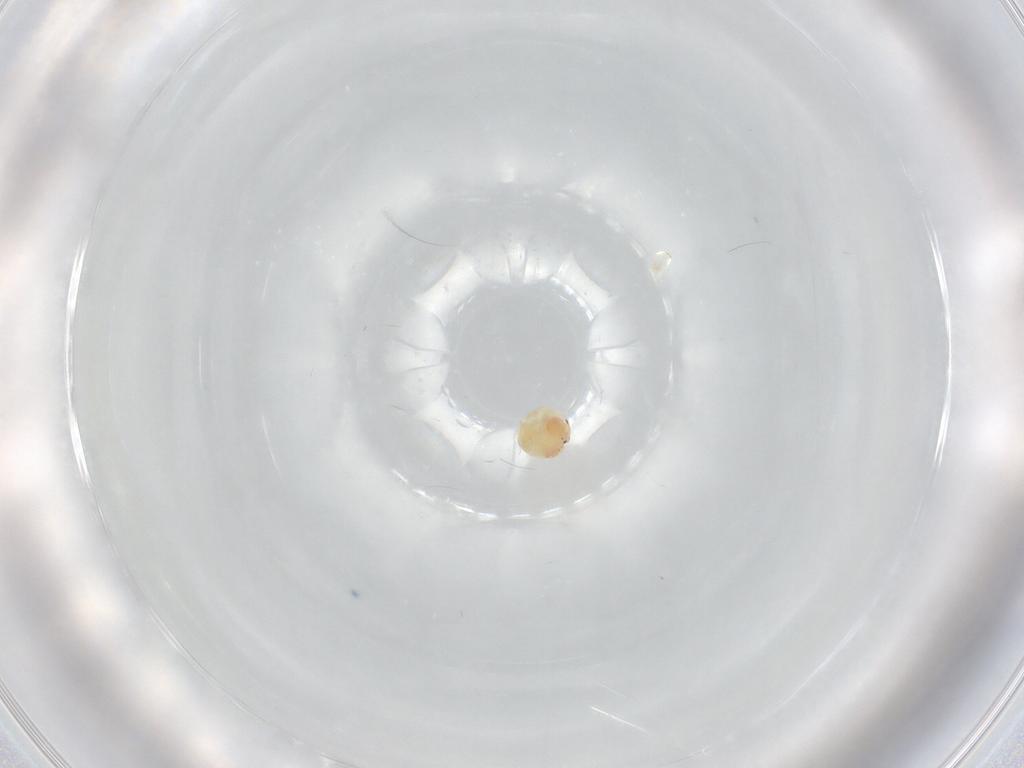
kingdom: Animalia
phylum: Arthropoda
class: Arachnida
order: Trombidiformes
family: Arrenuridae
